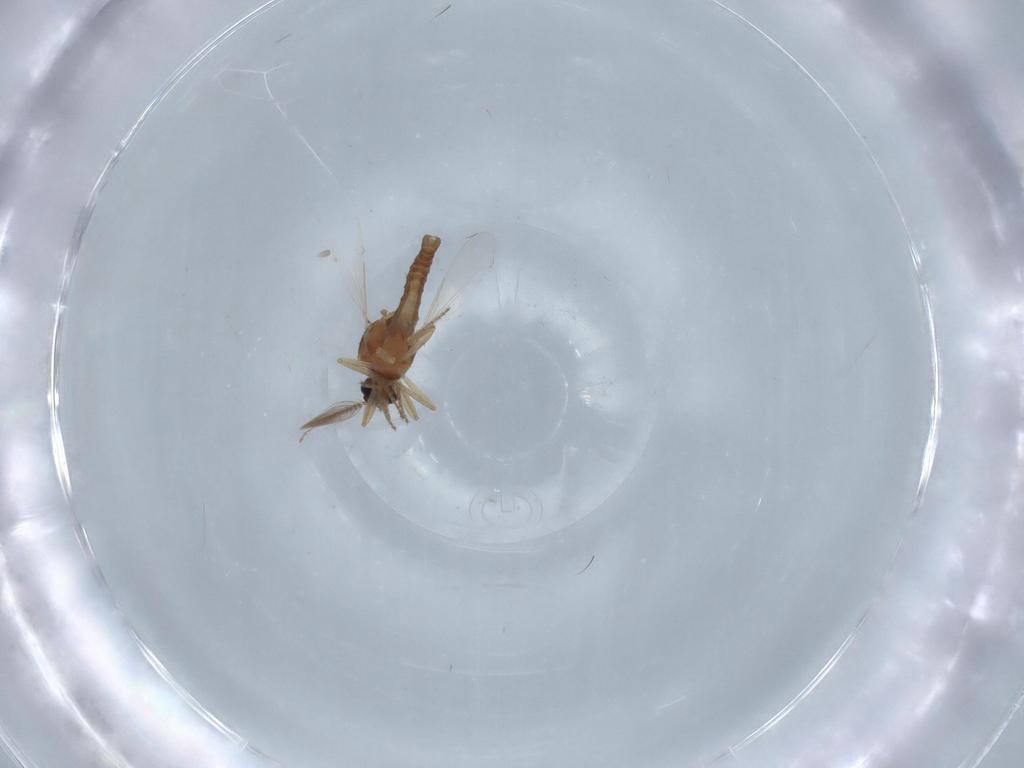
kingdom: Animalia
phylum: Arthropoda
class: Insecta
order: Diptera
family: Ceratopogonidae
